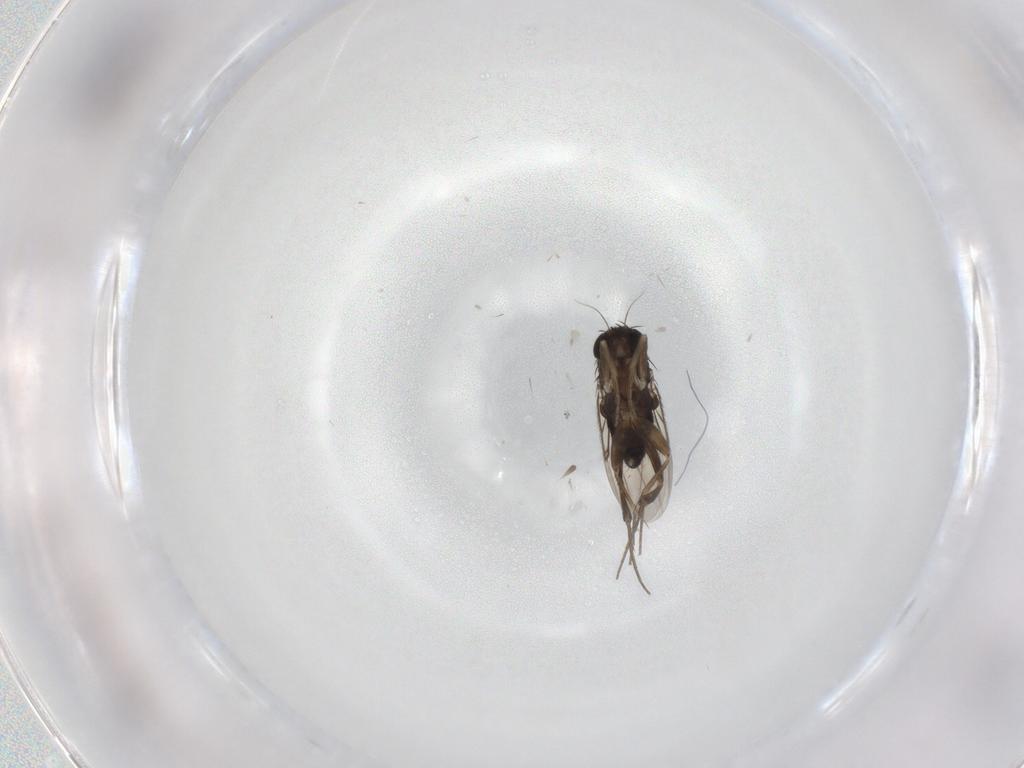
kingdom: Animalia
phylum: Arthropoda
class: Insecta
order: Diptera
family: Phoridae
